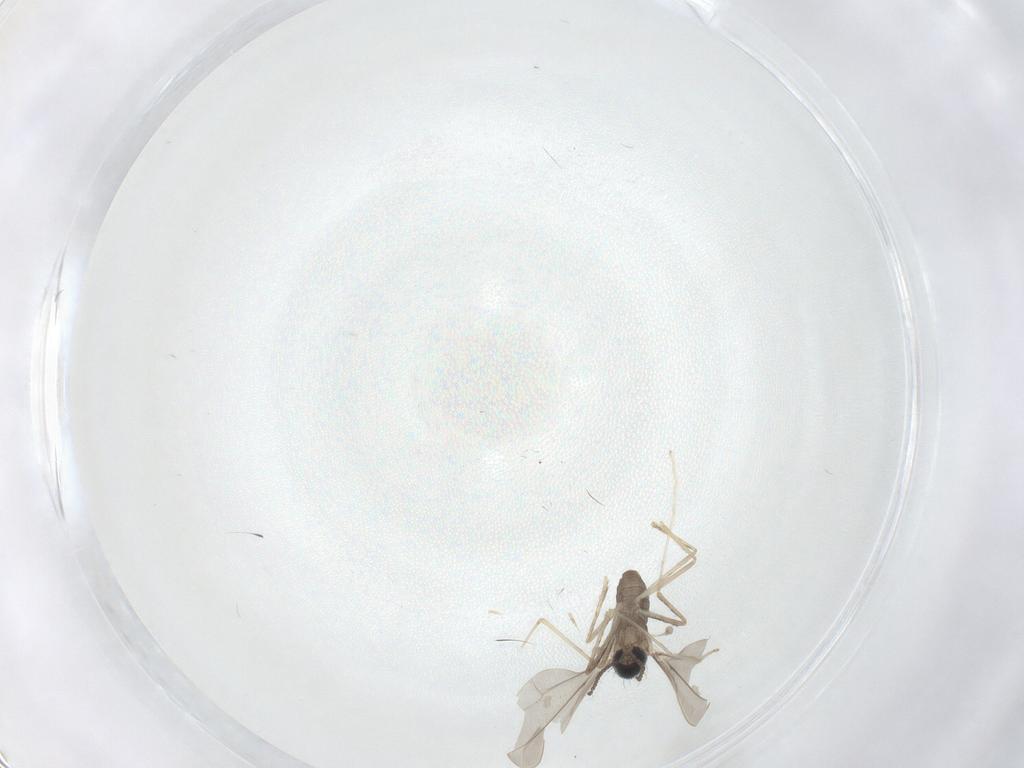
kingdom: Animalia
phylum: Arthropoda
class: Insecta
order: Diptera
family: Cecidomyiidae
